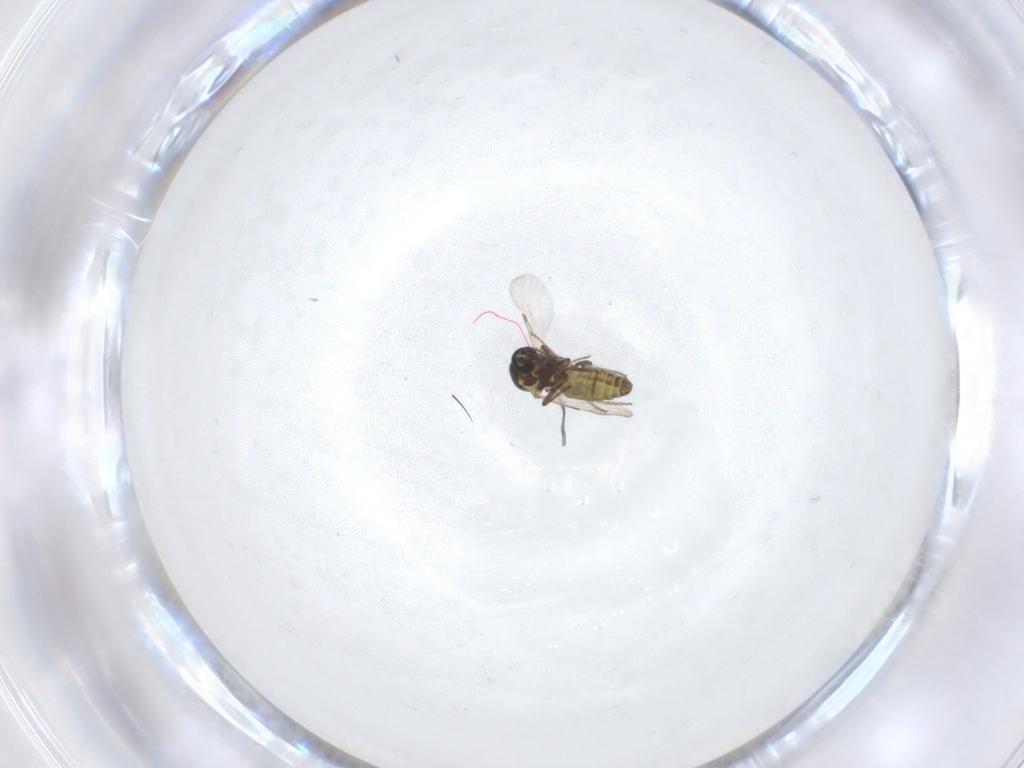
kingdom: Animalia
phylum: Arthropoda
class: Insecta
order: Diptera
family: Ceratopogonidae
